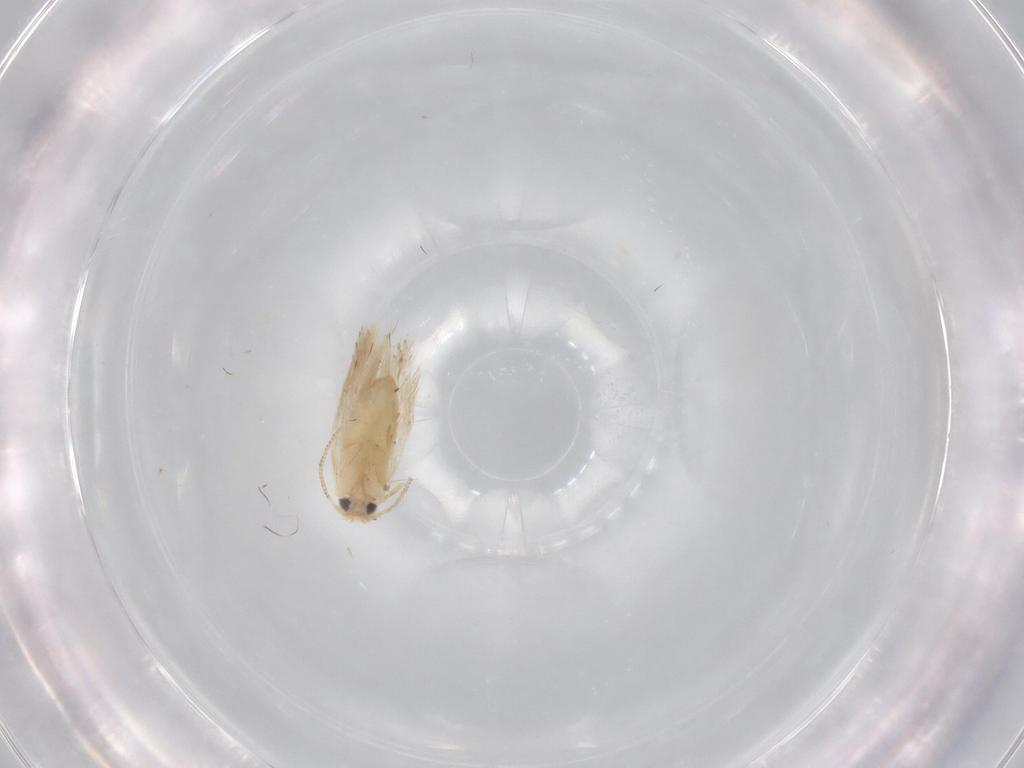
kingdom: Animalia
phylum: Arthropoda
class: Insecta
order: Lepidoptera
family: Nepticulidae
